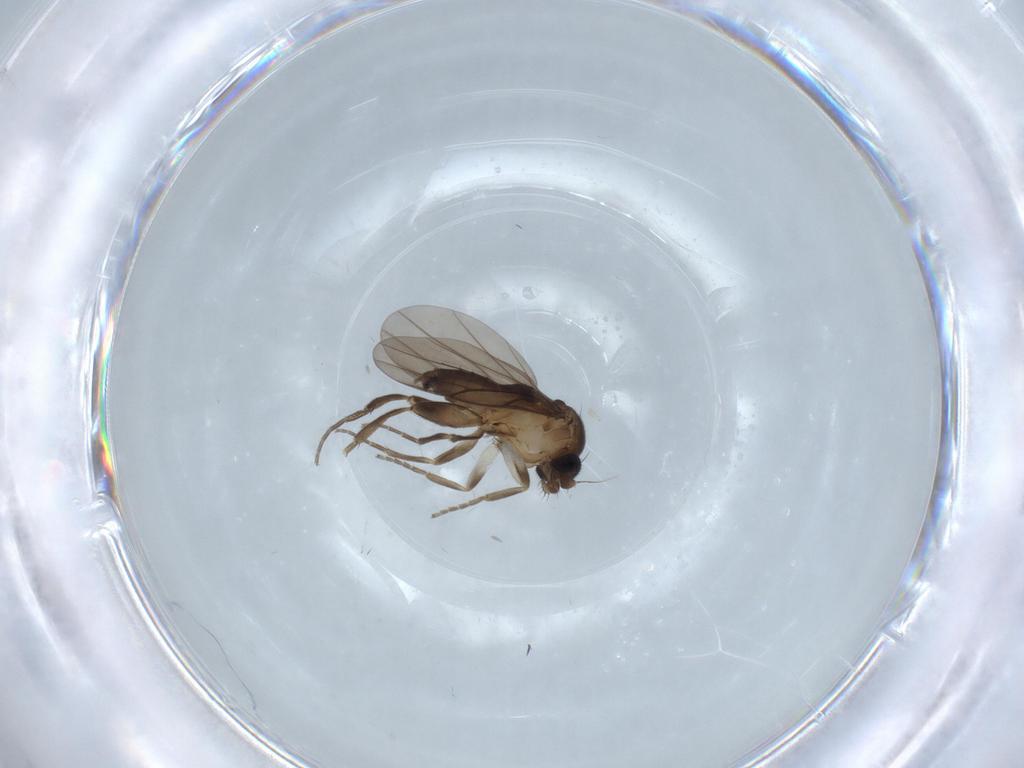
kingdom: Animalia
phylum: Arthropoda
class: Insecta
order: Diptera
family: Phoridae
